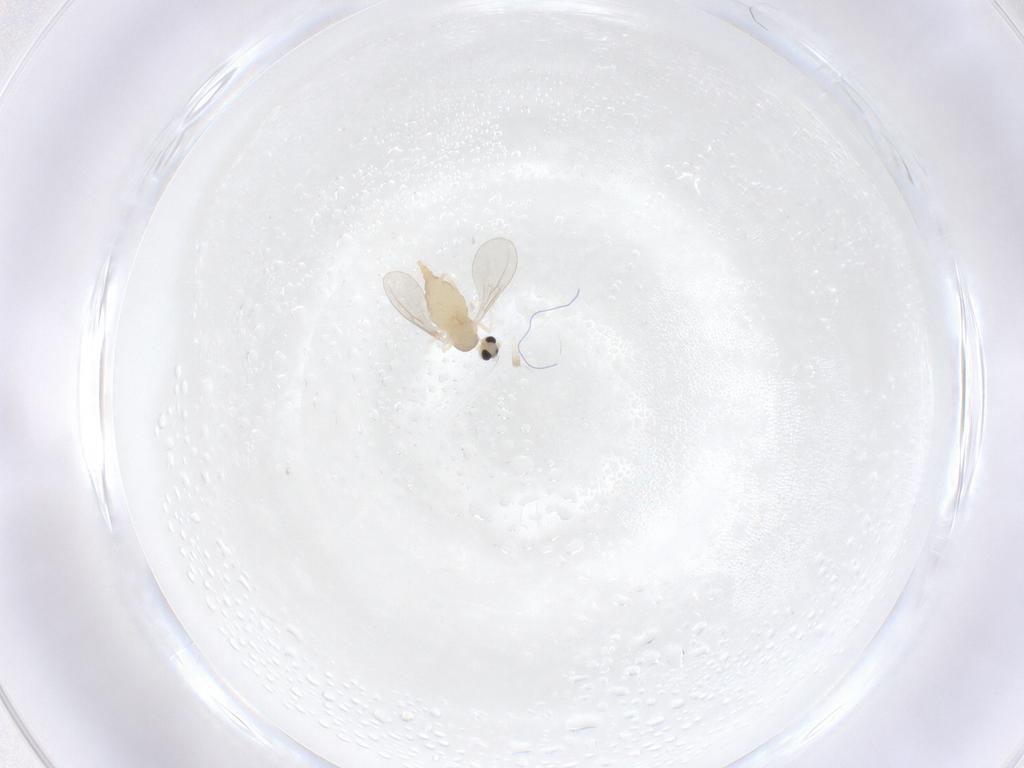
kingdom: Animalia
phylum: Arthropoda
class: Insecta
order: Diptera
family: Cecidomyiidae
